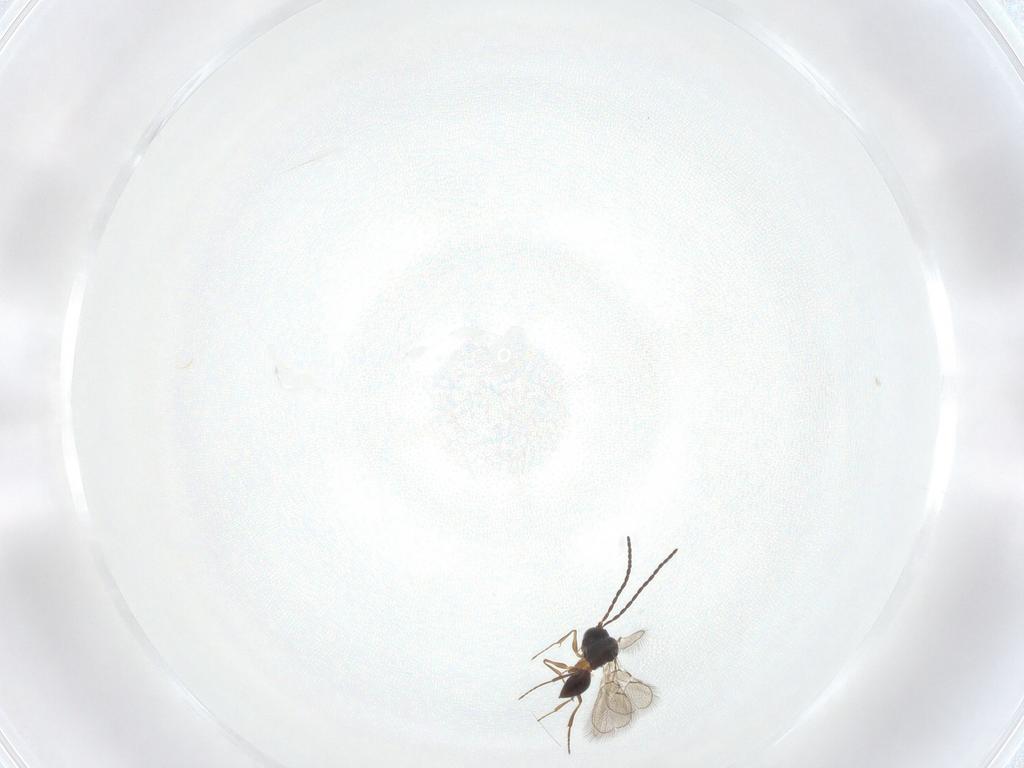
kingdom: Animalia
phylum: Arthropoda
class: Insecta
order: Hymenoptera
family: Figitidae
